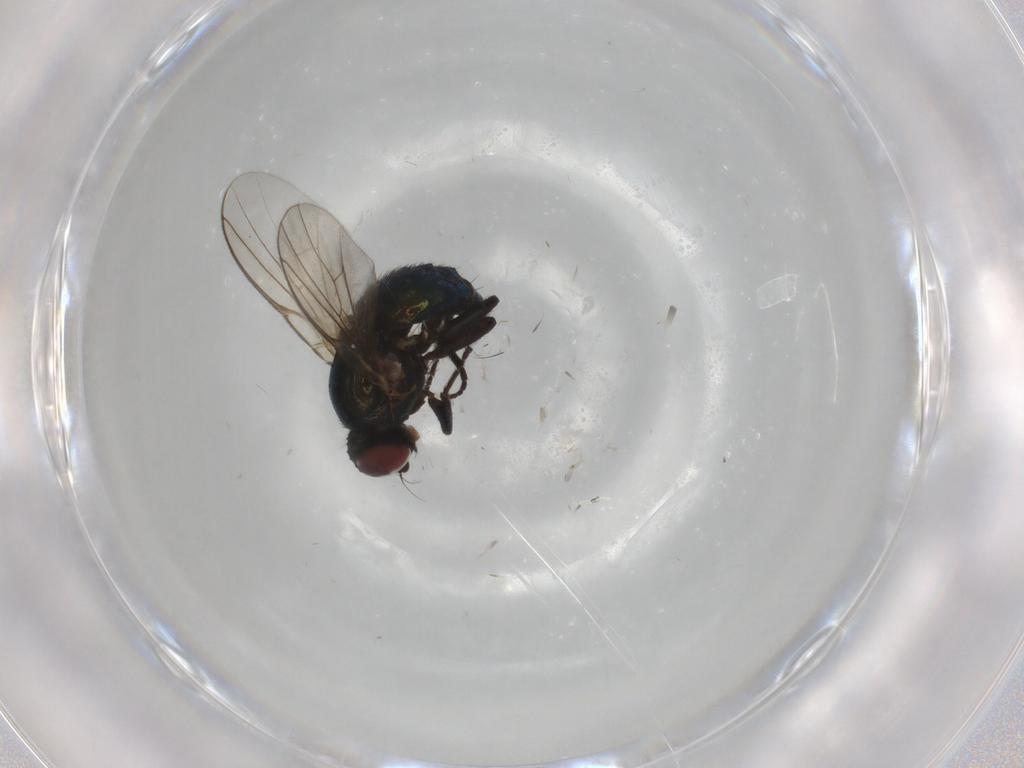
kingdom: Animalia
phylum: Arthropoda
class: Insecta
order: Diptera
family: Agromyzidae
